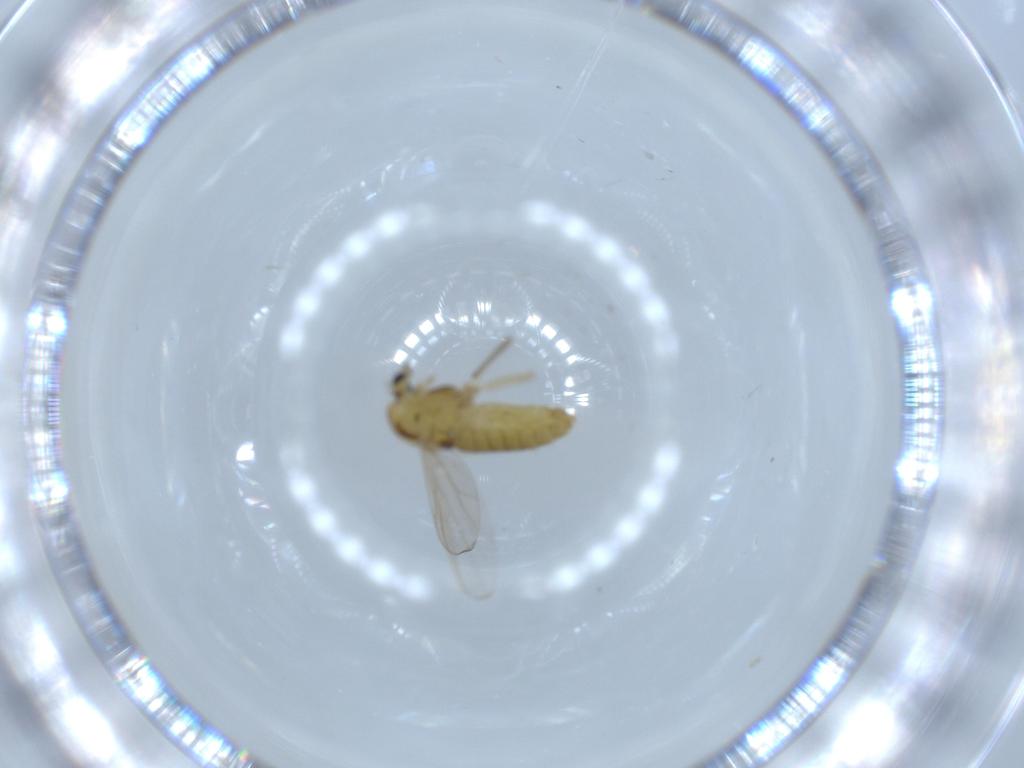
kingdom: Animalia
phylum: Arthropoda
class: Insecta
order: Diptera
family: Chironomidae
